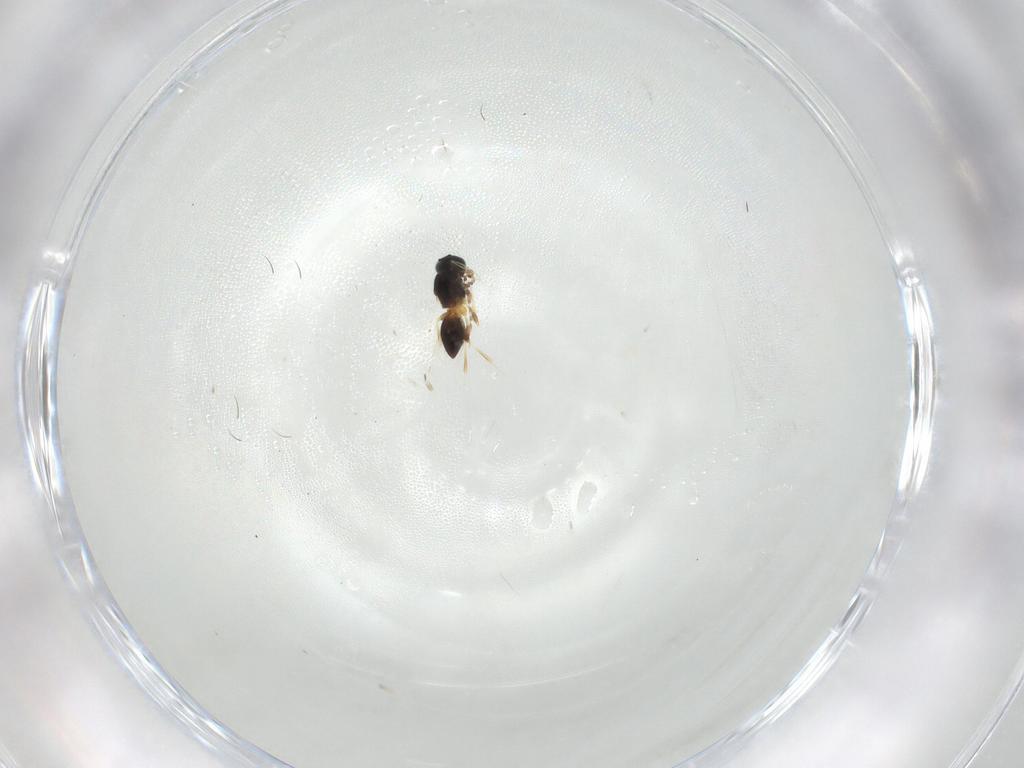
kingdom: Animalia
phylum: Arthropoda
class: Insecta
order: Hymenoptera
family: Platygastridae
